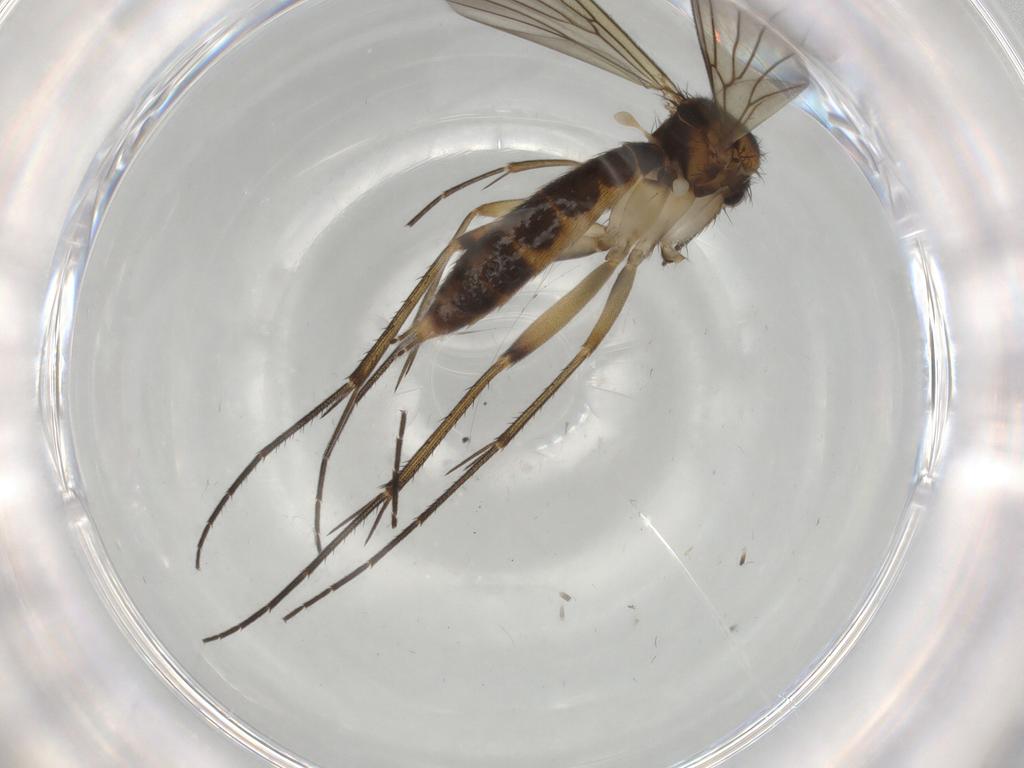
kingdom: Animalia
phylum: Arthropoda
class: Insecta
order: Diptera
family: Mycetophilidae
